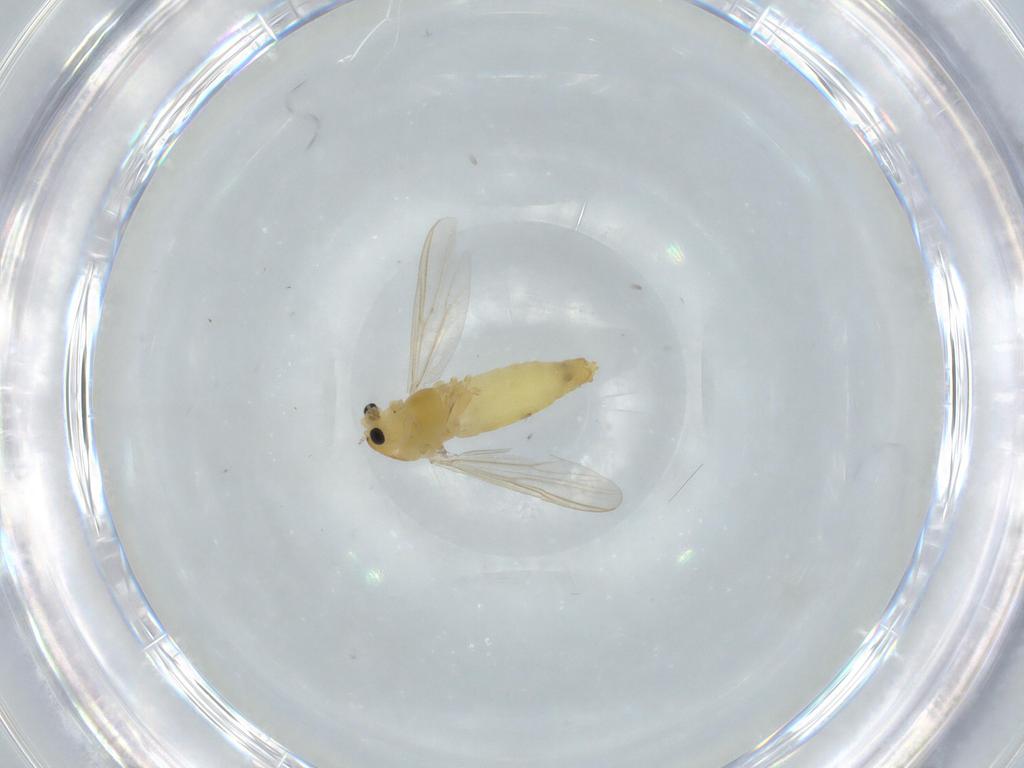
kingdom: Animalia
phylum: Arthropoda
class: Insecta
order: Diptera
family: Chironomidae
